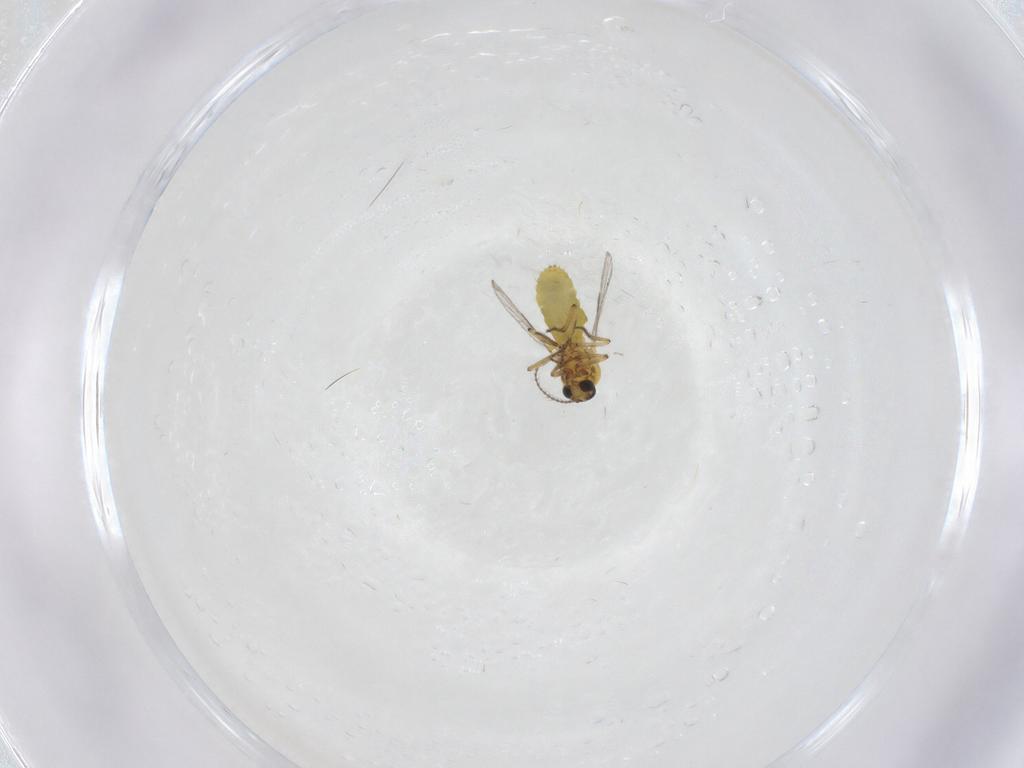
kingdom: Animalia
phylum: Arthropoda
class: Insecta
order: Diptera
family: Ceratopogonidae
